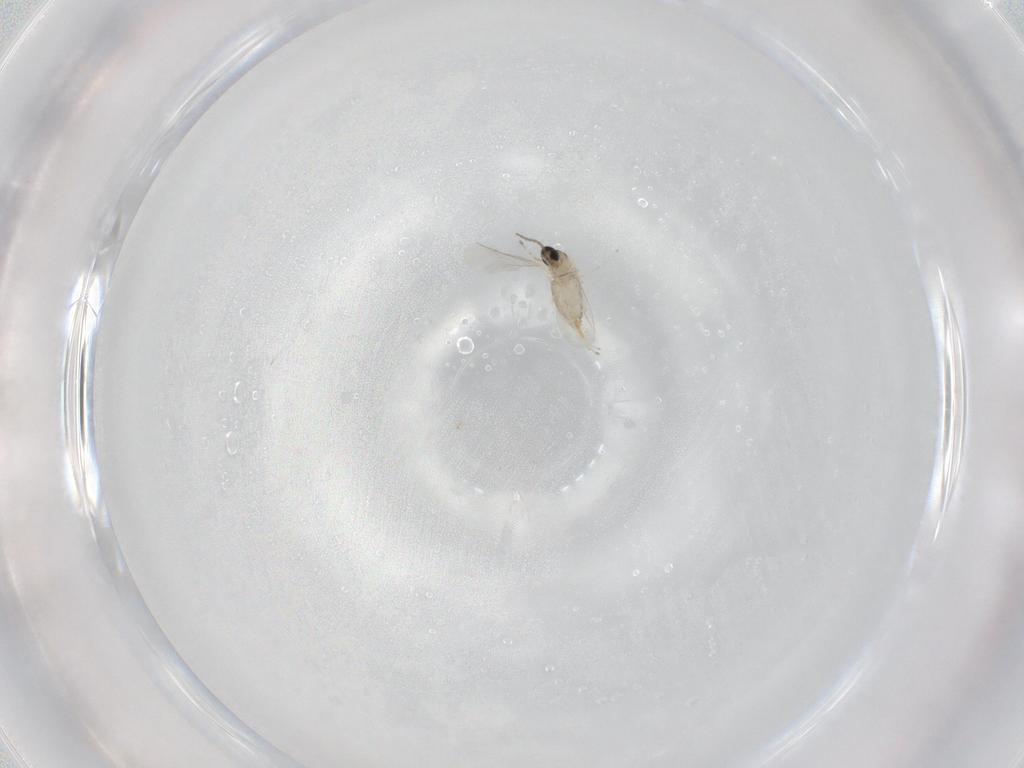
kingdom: Animalia
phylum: Arthropoda
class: Insecta
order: Diptera
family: Cecidomyiidae
